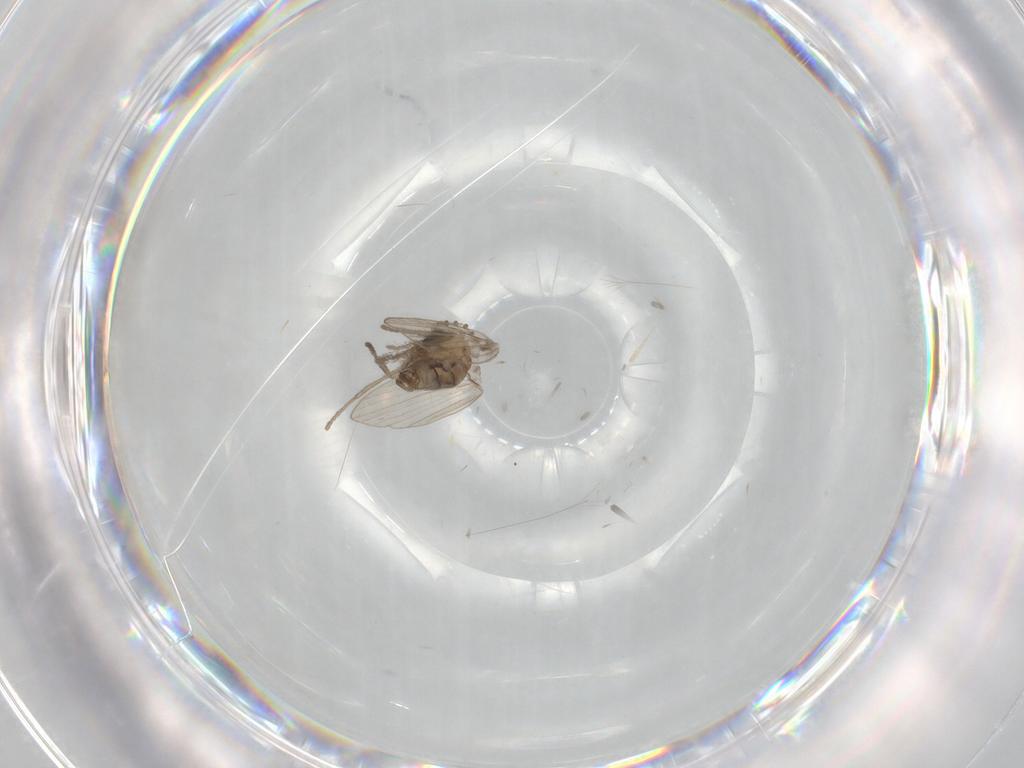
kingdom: Animalia
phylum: Arthropoda
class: Insecta
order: Diptera
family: Psychodidae
